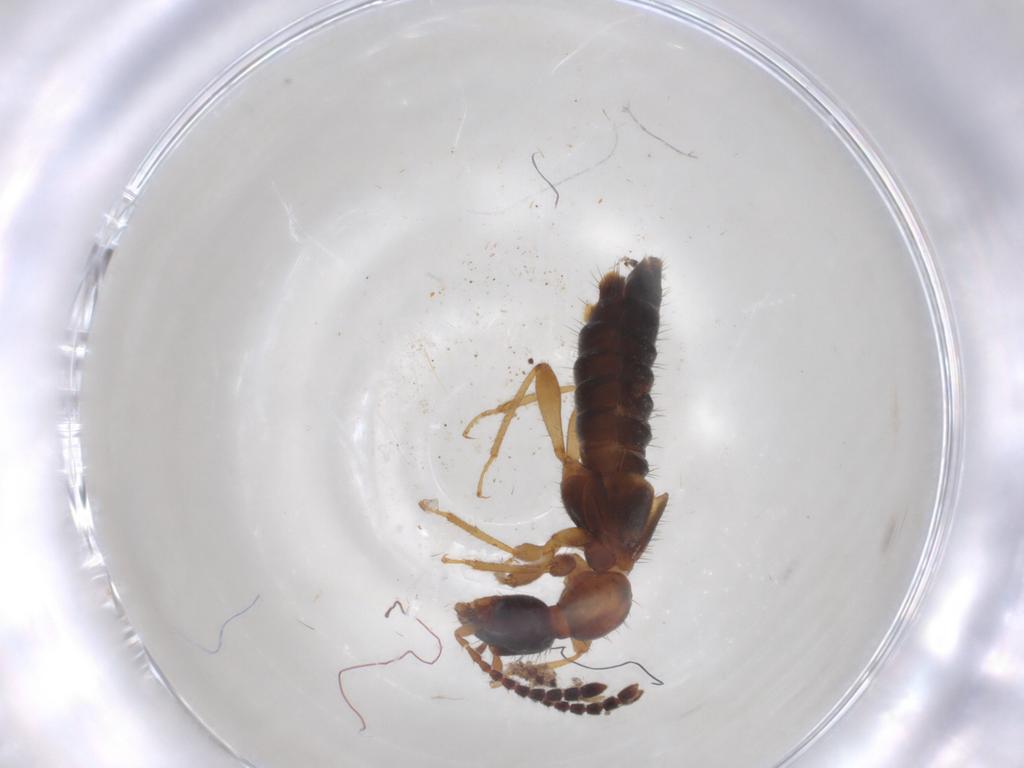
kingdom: Animalia
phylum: Arthropoda
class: Insecta
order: Coleoptera
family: Staphylinidae
